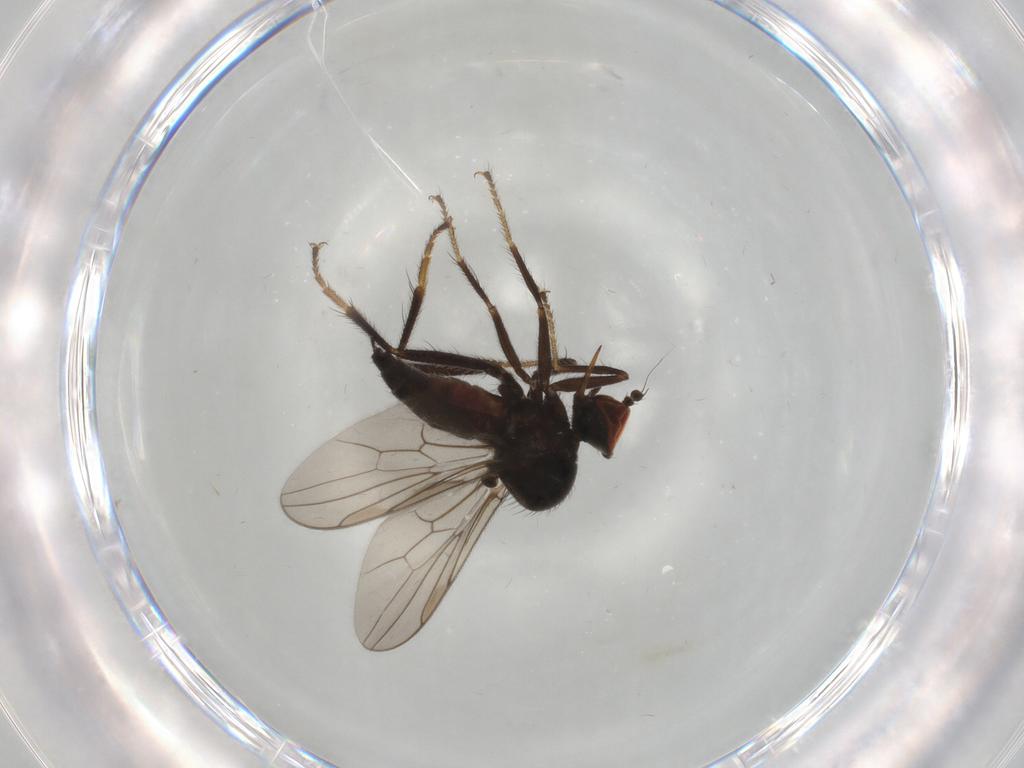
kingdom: Animalia
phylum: Arthropoda
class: Insecta
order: Diptera
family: Hybotidae
